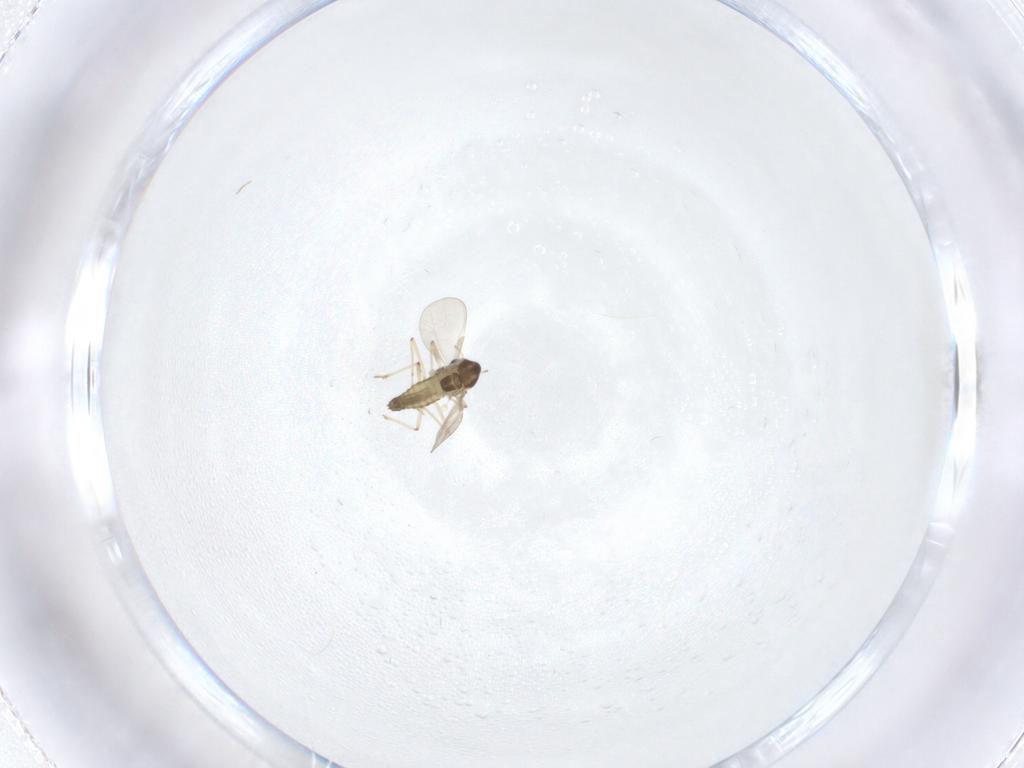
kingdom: Animalia
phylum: Arthropoda
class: Insecta
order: Diptera
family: Chironomidae
